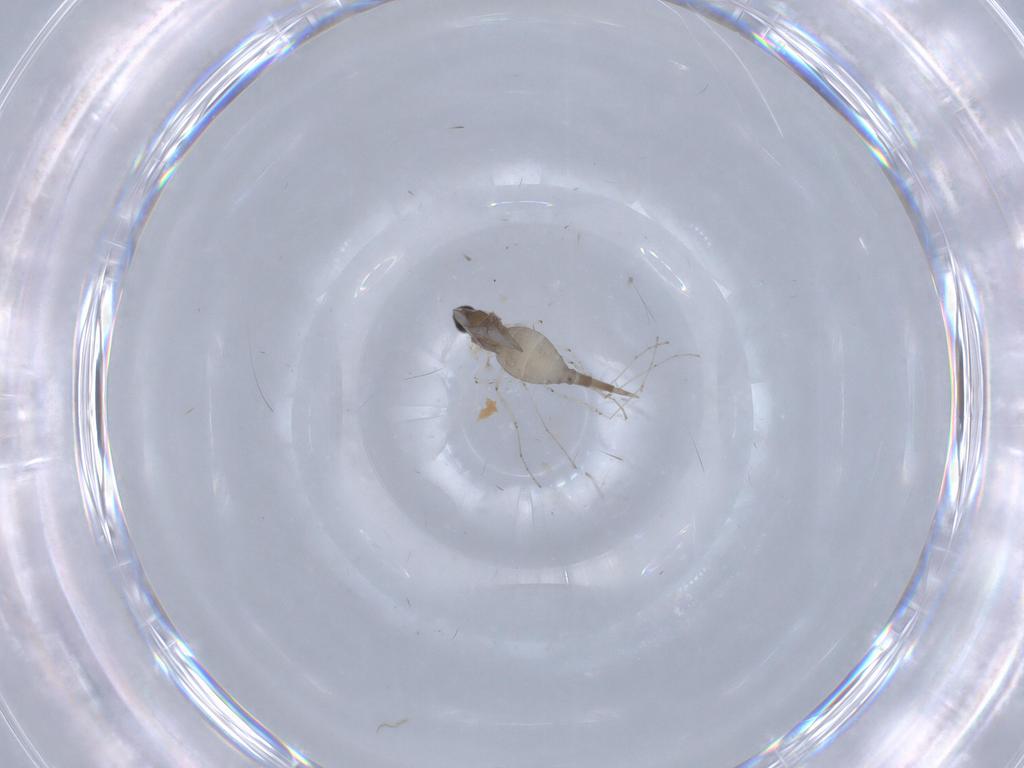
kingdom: Animalia
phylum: Arthropoda
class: Insecta
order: Diptera
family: Cecidomyiidae
